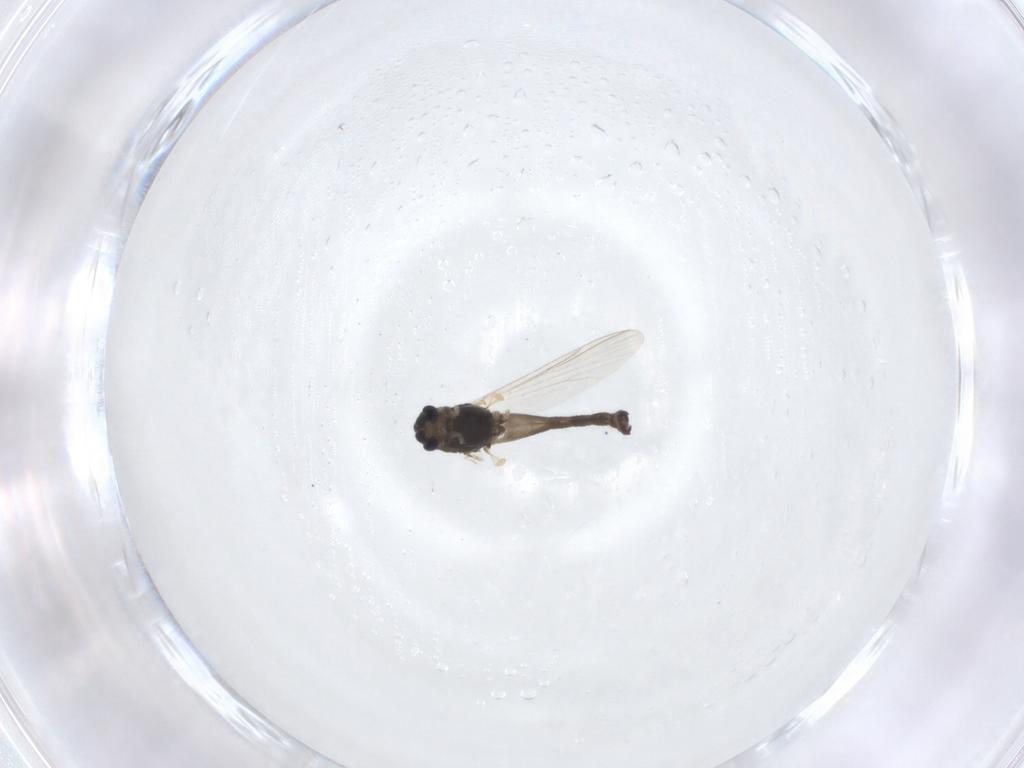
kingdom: Animalia
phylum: Arthropoda
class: Insecta
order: Diptera
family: Chironomidae
